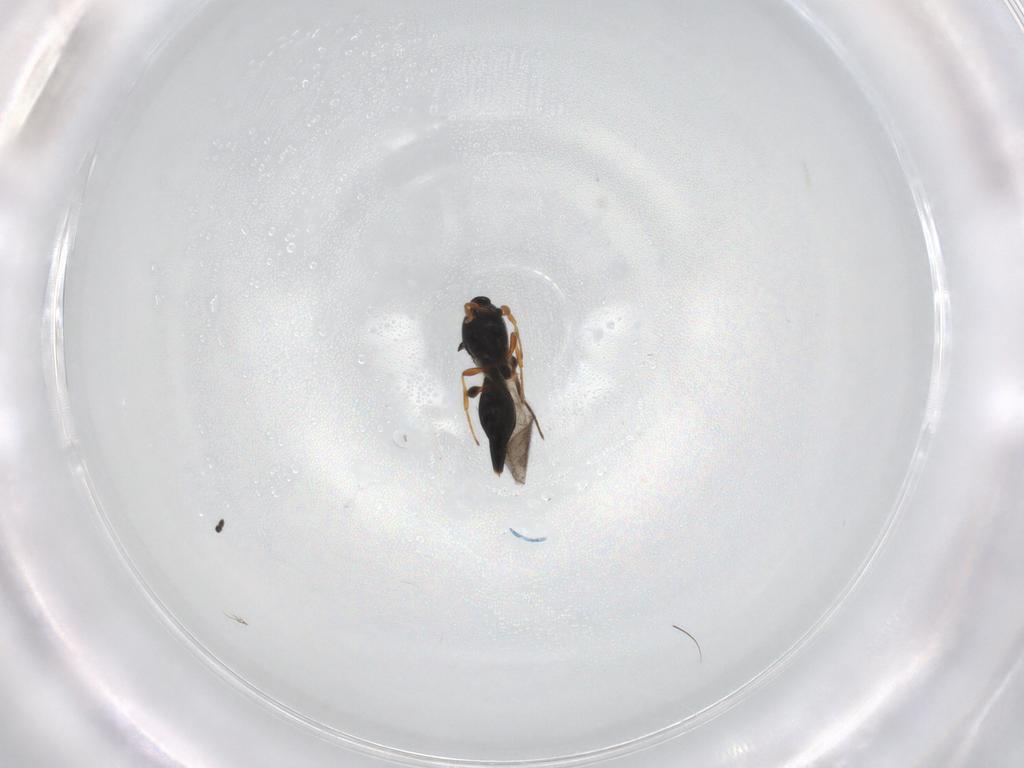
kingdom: Animalia
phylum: Arthropoda
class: Insecta
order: Hymenoptera
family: Platygastridae
